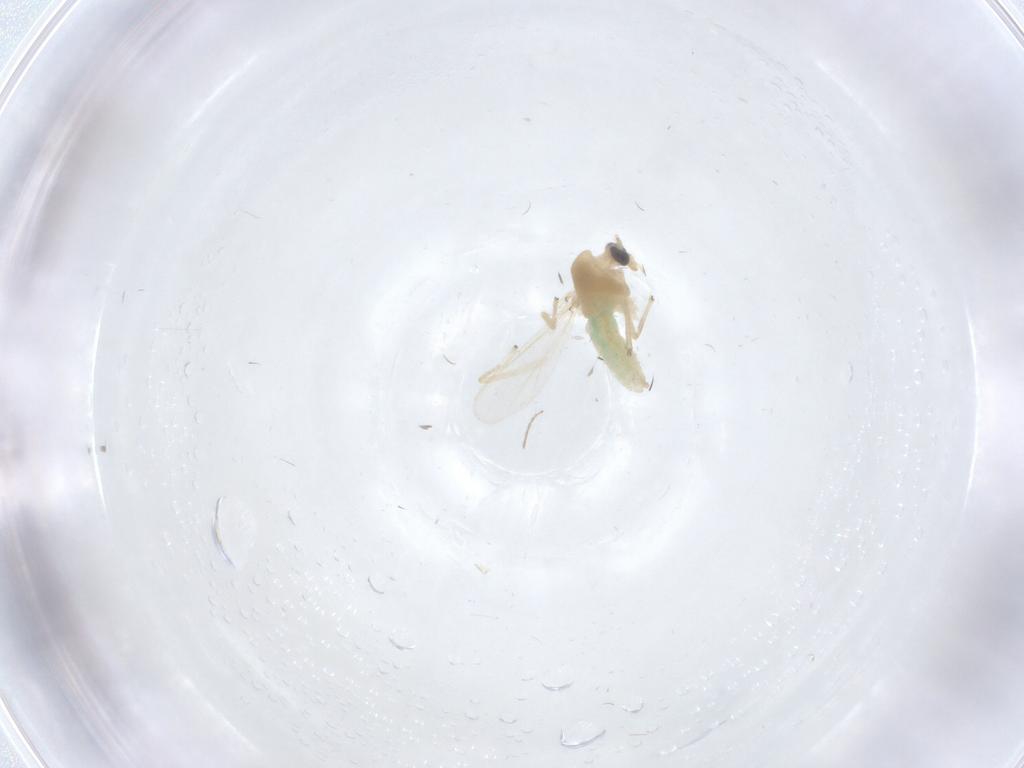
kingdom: Animalia
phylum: Arthropoda
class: Insecta
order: Diptera
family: Chironomidae
